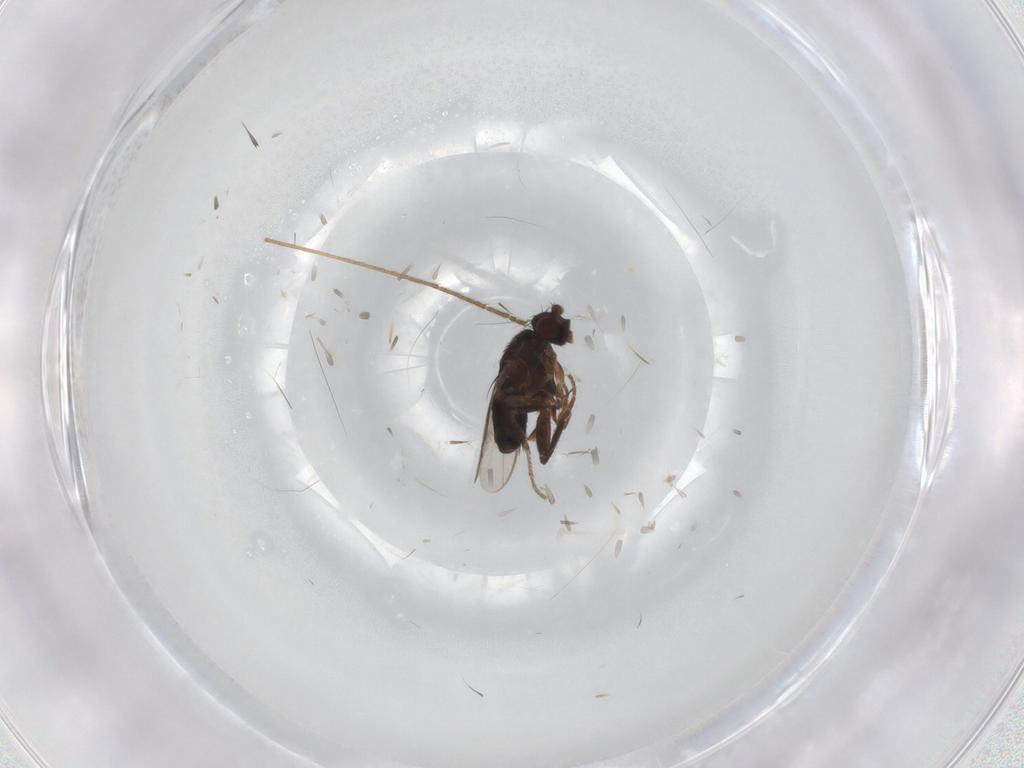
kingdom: Animalia
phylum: Arthropoda
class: Insecta
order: Diptera
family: Sphaeroceridae
